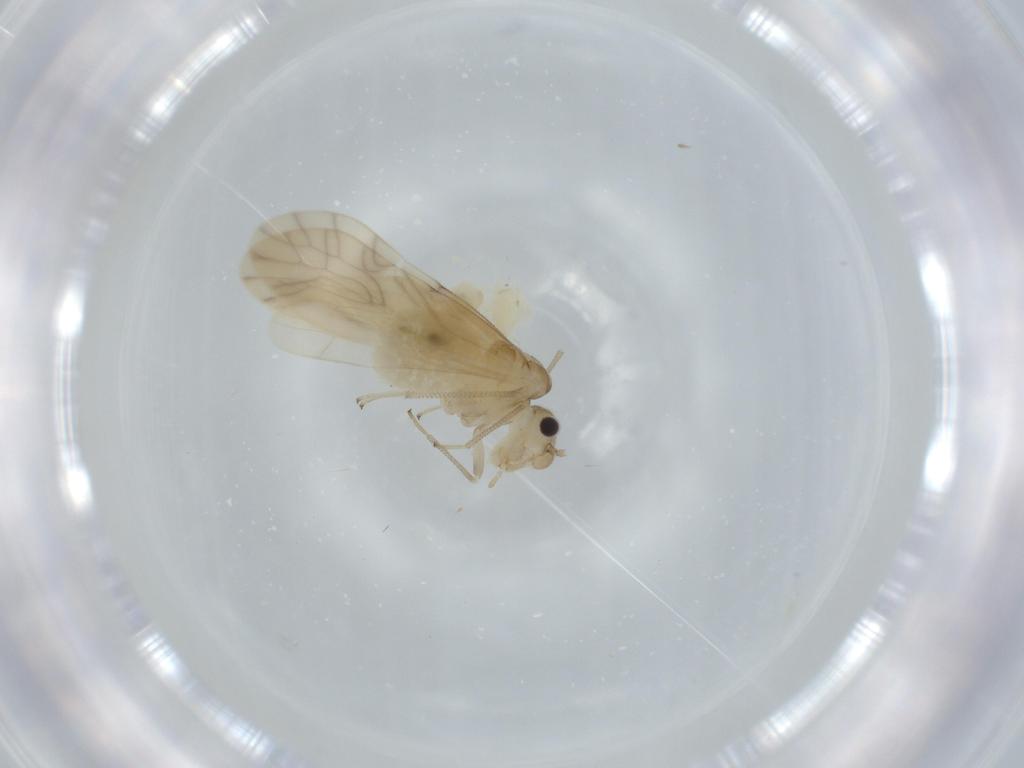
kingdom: Animalia
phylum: Arthropoda
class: Insecta
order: Psocodea
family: Caeciliusidae
